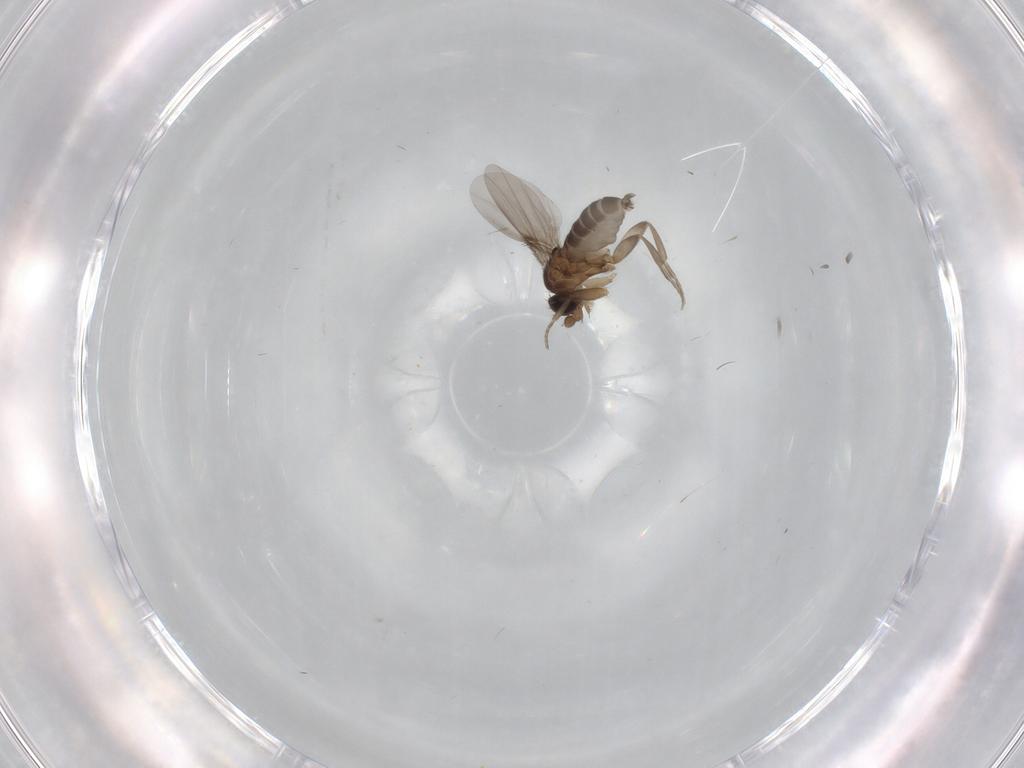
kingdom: Animalia
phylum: Arthropoda
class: Insecta
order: Diptera
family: Phoridae
